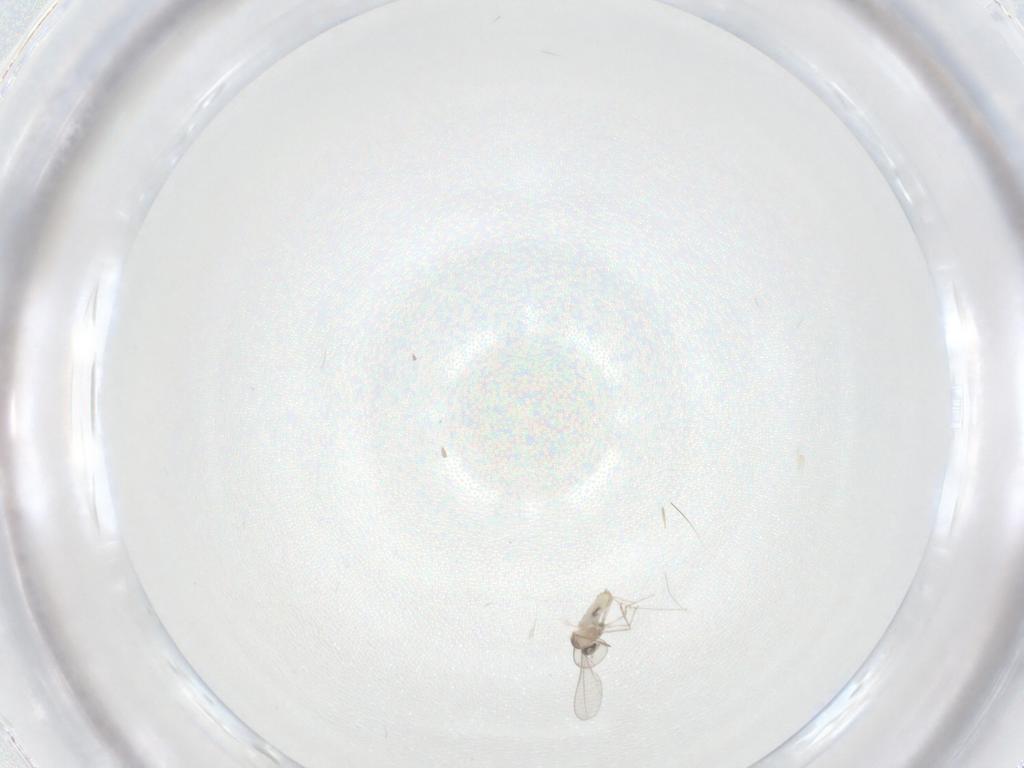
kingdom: Animalia
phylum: Arthropoda
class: Insecta
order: Diptera
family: Cecidomyiidae
